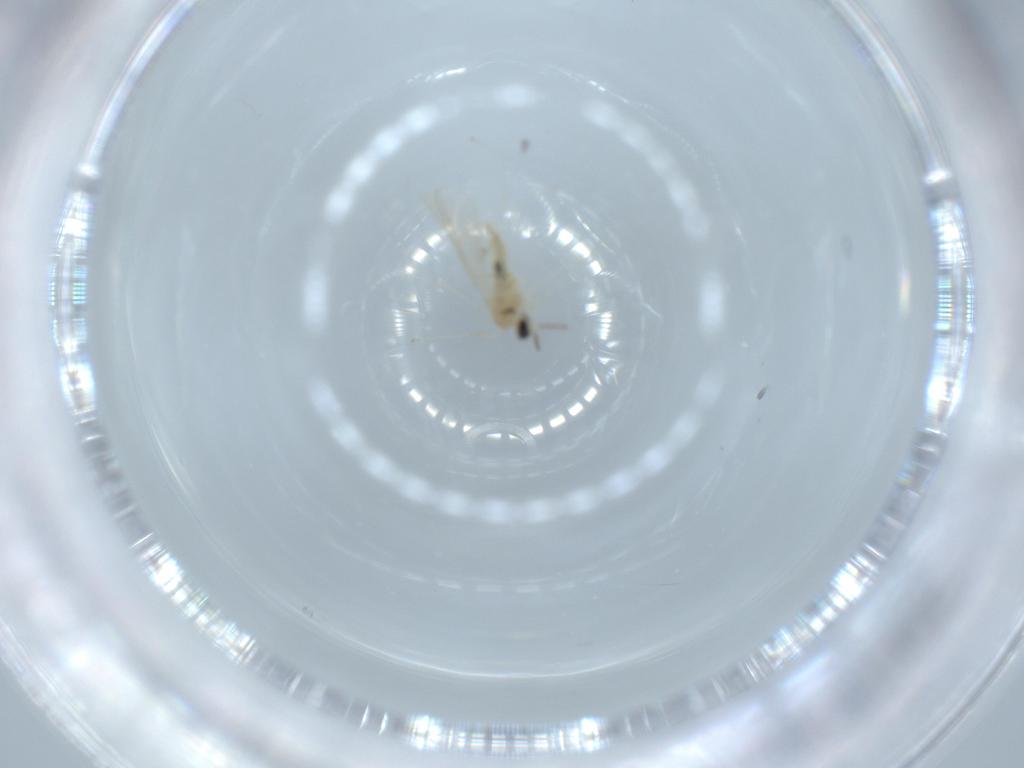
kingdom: Animalia
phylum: Arthropoda
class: Insecta
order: Diptera
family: Cecidomyiidae
